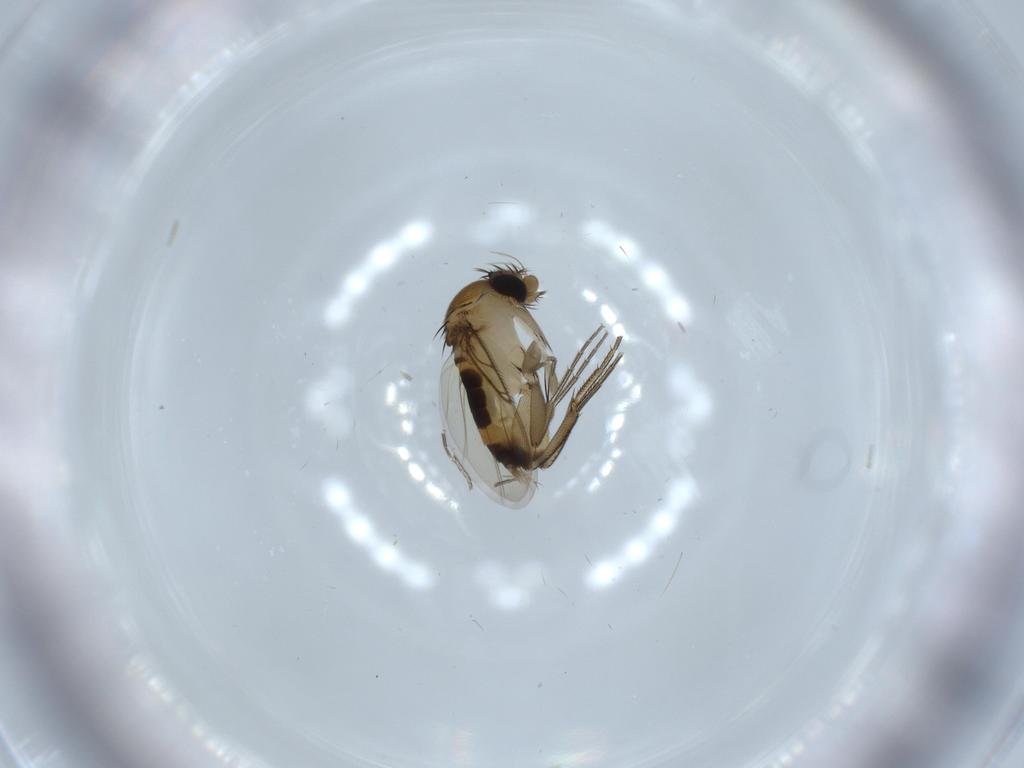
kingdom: Animalia
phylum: Arthropoda
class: Insecta
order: Diptera
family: Phoridae
